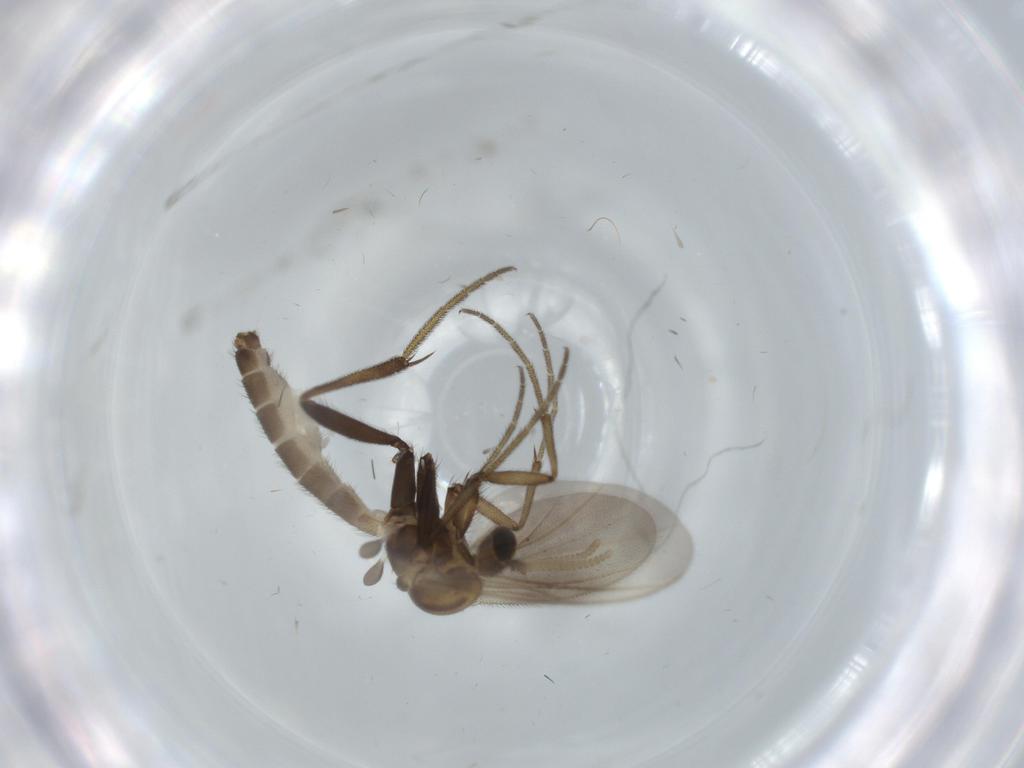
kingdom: Animalia
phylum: Arthropoda
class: Insecta
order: Diptera
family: Mycetophilidae
